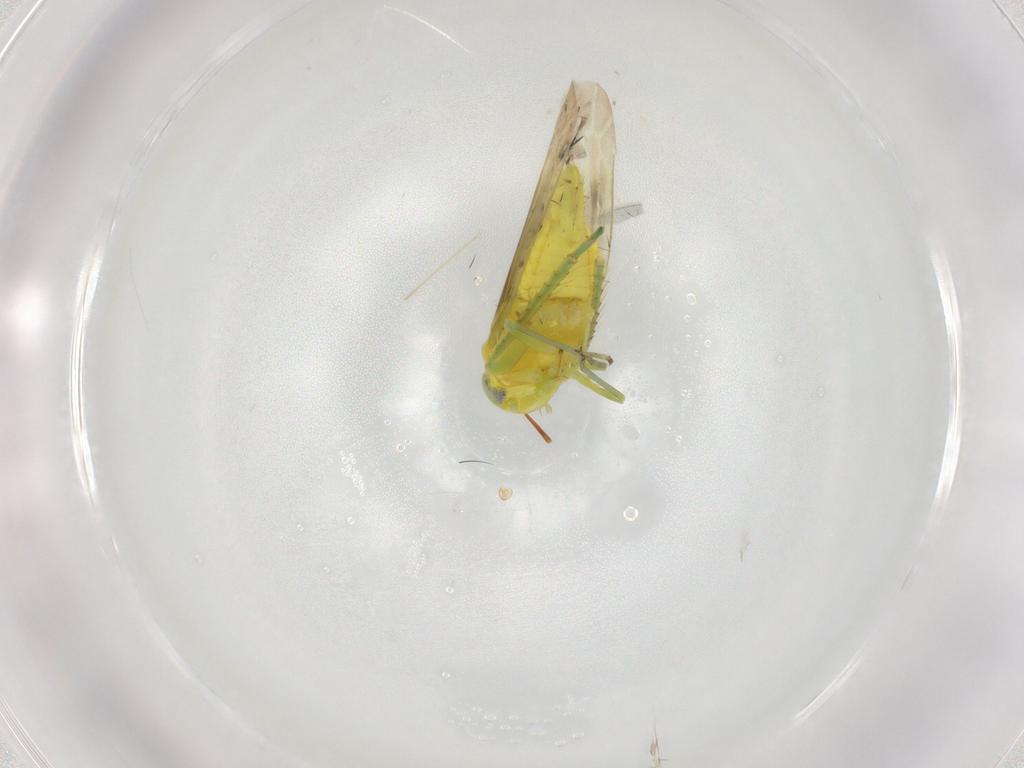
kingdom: Animalia
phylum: Arthropoda
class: Insecta
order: Hemiptera
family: Cicadellidae
